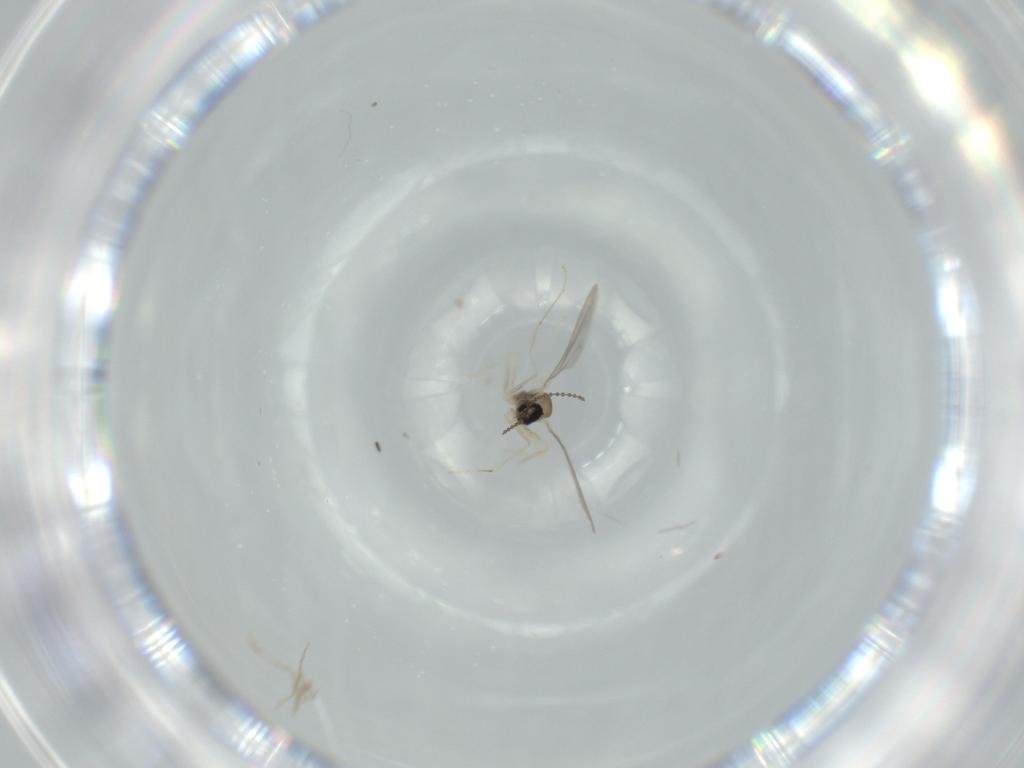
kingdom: Animalia
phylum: Arthropoda
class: Insecta
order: Diptera
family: Cecidomyiidae
